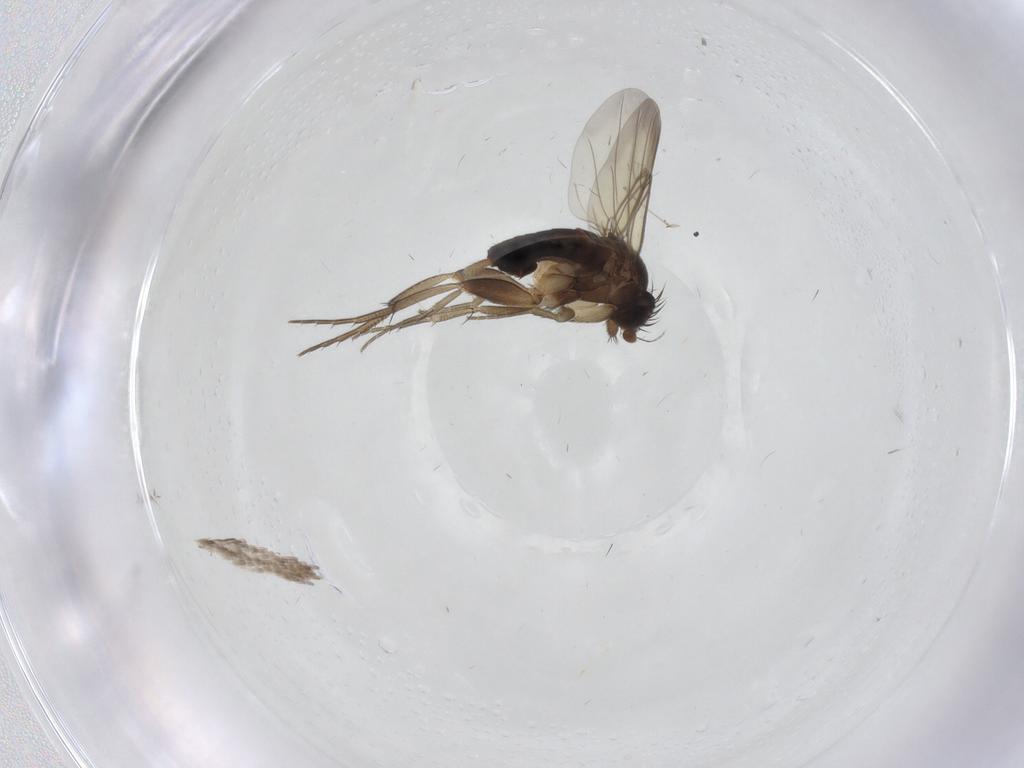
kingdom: Animalia
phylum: Arthropoda
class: Insecta
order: Diptera
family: Cecidomyiidae
